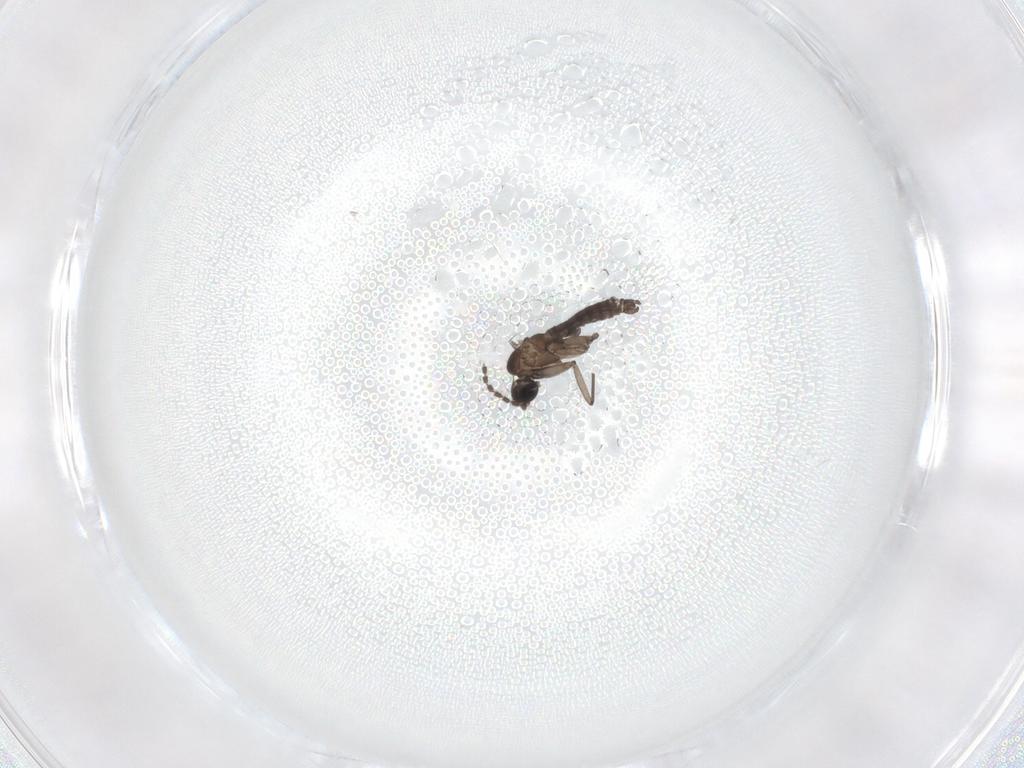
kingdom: Animalia
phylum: Arthropoda
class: Insecta
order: Diptera
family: Sciaridae
